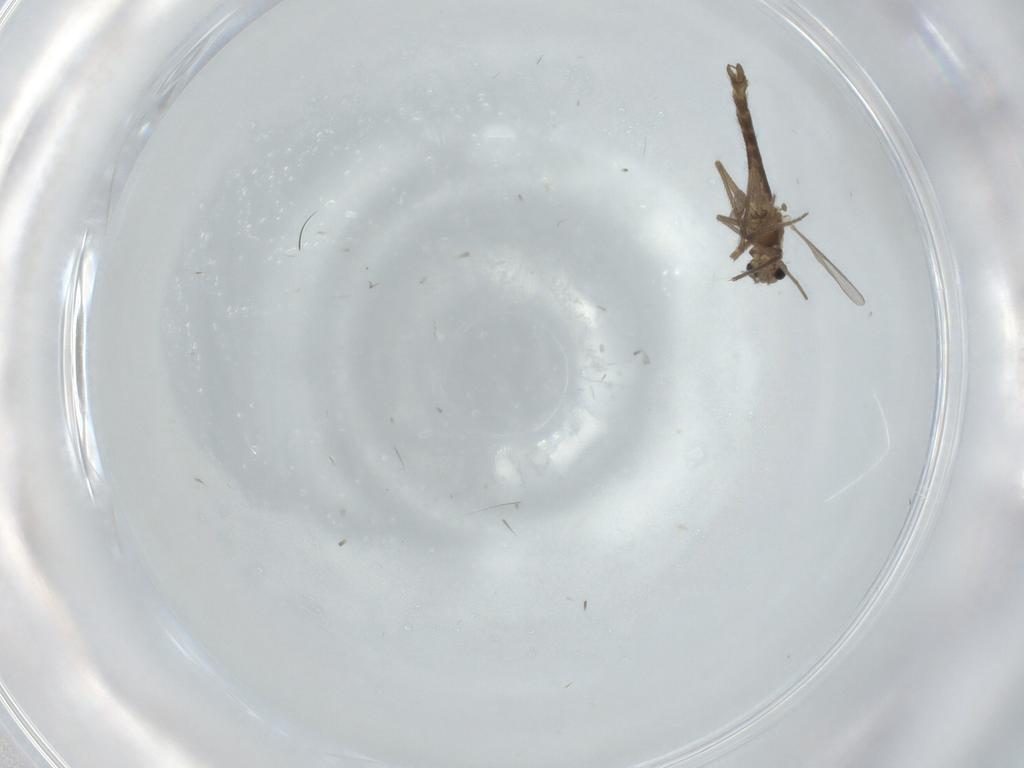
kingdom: Animalia
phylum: Arthropoda
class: Insecta
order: Diptera
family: Chironomidae
